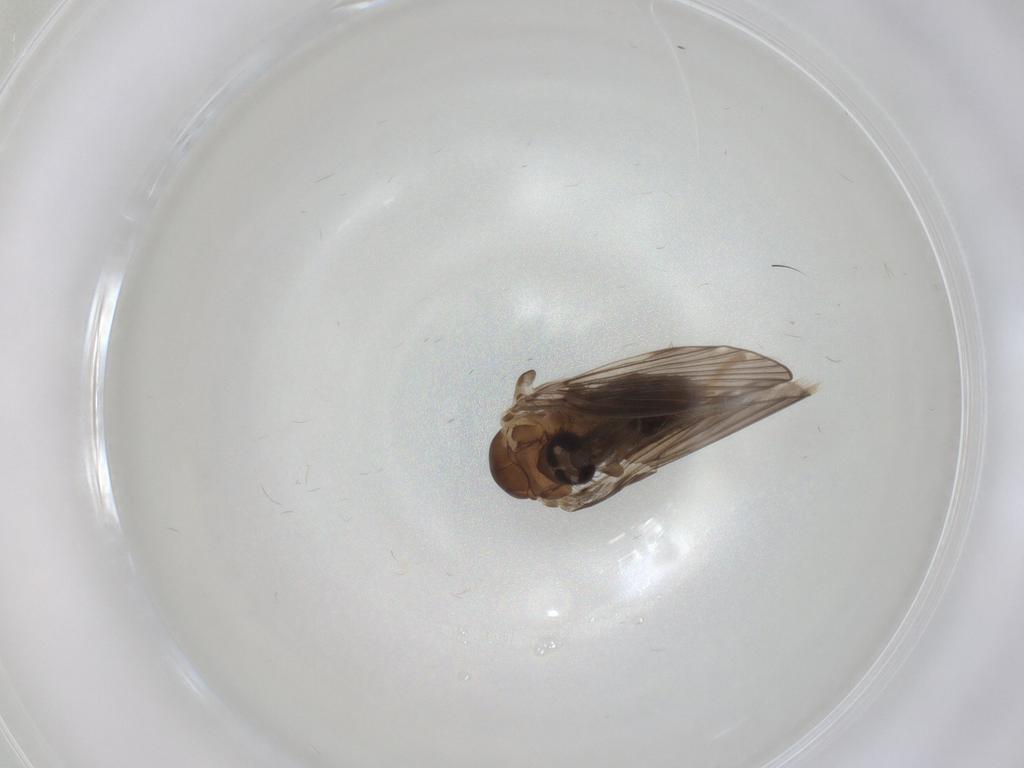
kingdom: Animalia
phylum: Arthropoda
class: Insecta
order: Diptera
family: Psychodidae
